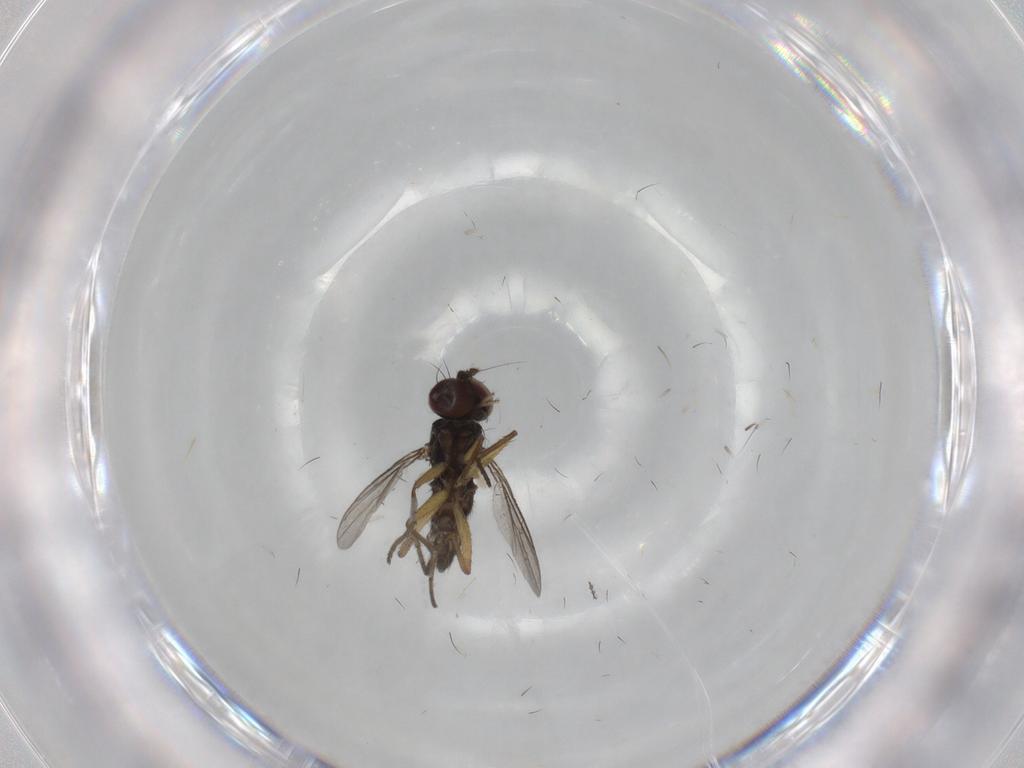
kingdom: Animalia
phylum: Arthropoda
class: Insecta
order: Diptera
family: Dolichopodidae
